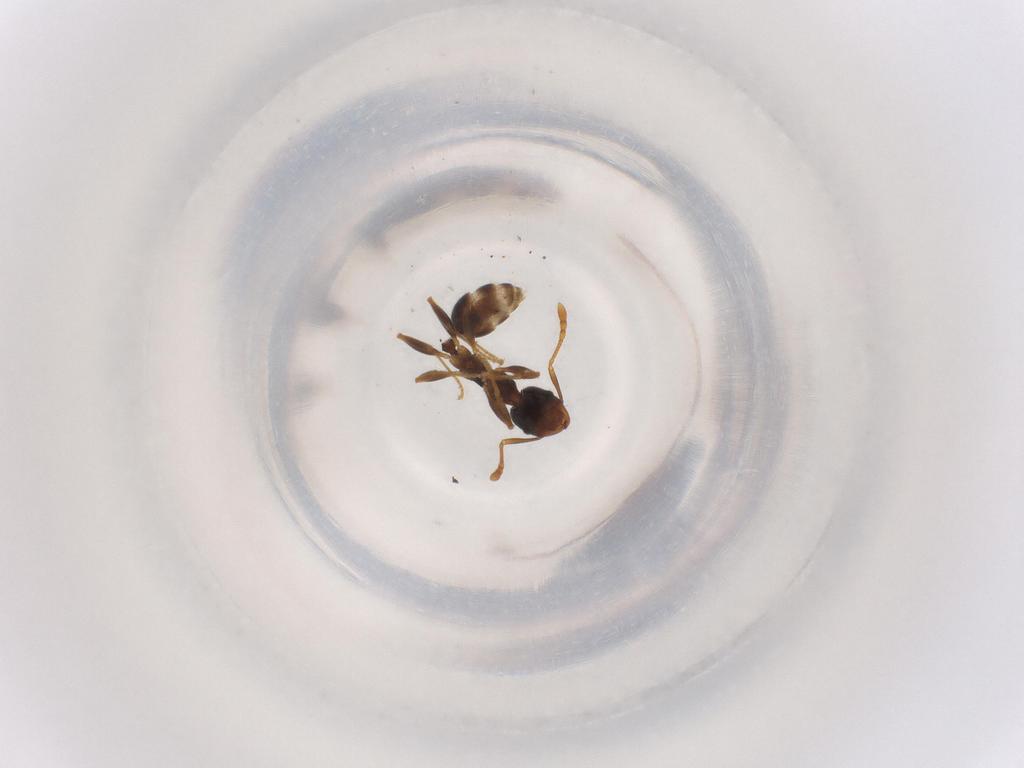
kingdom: Animalia
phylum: Arthropoda
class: Insecta
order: Hymenoptera
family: Formicidae
